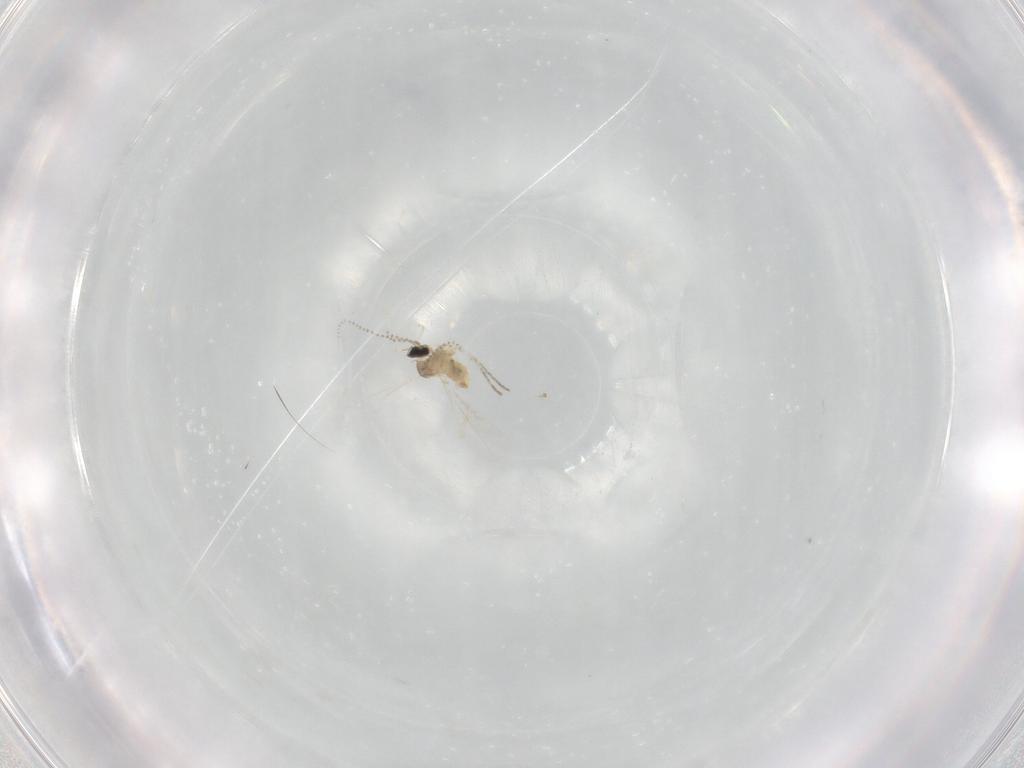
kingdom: Animalia
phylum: Arthropoda
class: Insecta
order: Diptera
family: Cecidomyiidae
